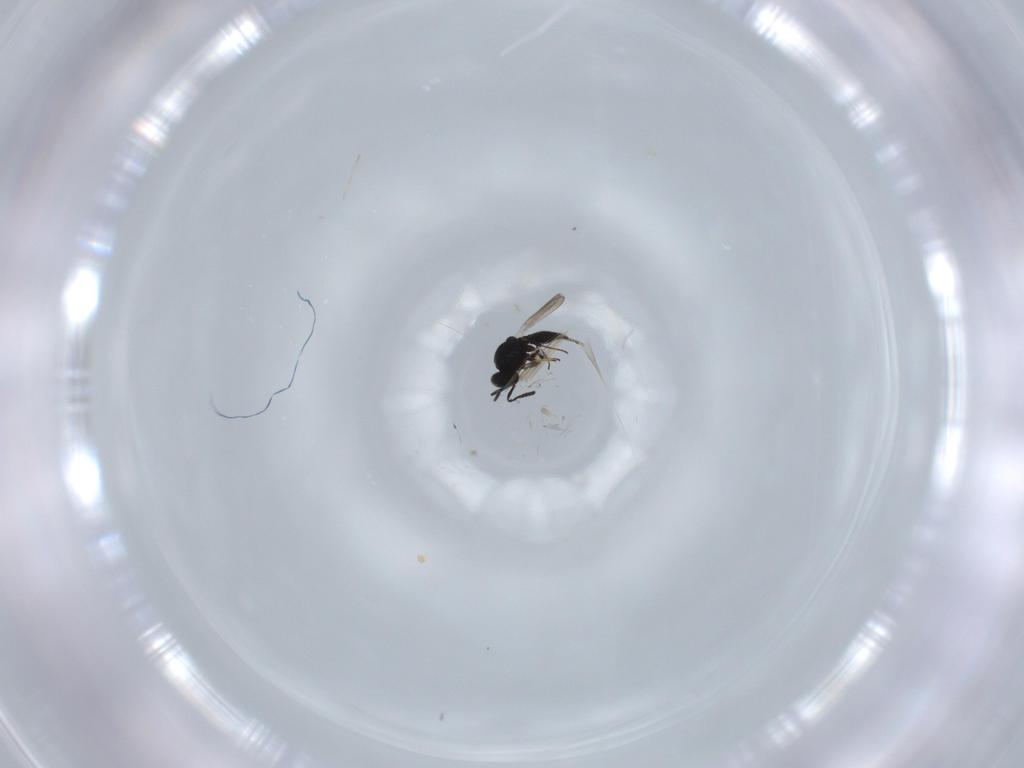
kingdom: Animalia
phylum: Arthropoda
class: Insecta
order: Hymenoptera
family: Platygastridae
